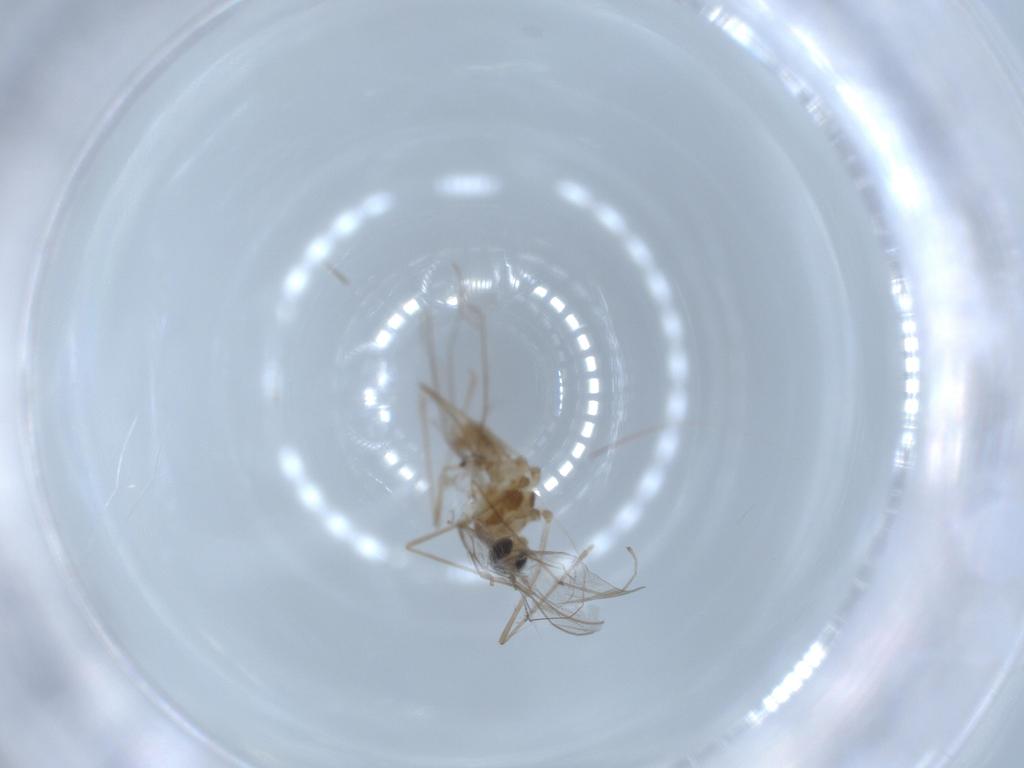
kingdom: Animalia
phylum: Arthropoda
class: Insecta
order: Diptera
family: Cecidomyiidae
